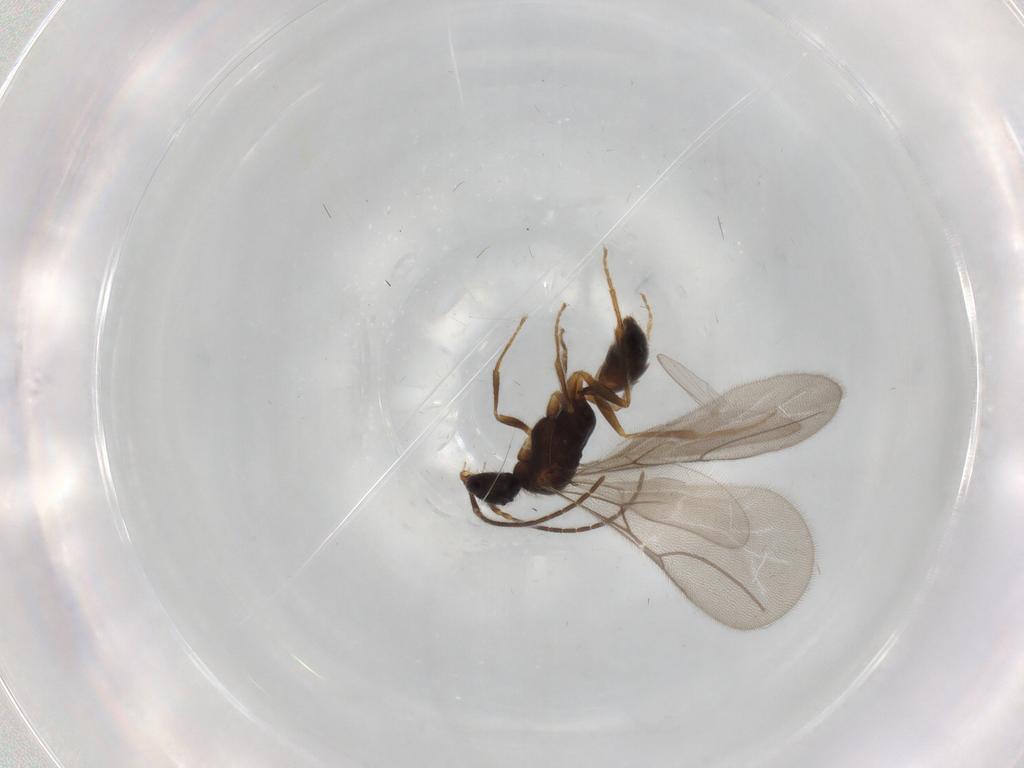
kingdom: Animalia
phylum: Arthropoda
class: Insecta
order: Hymenoptera
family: Bethylidae
